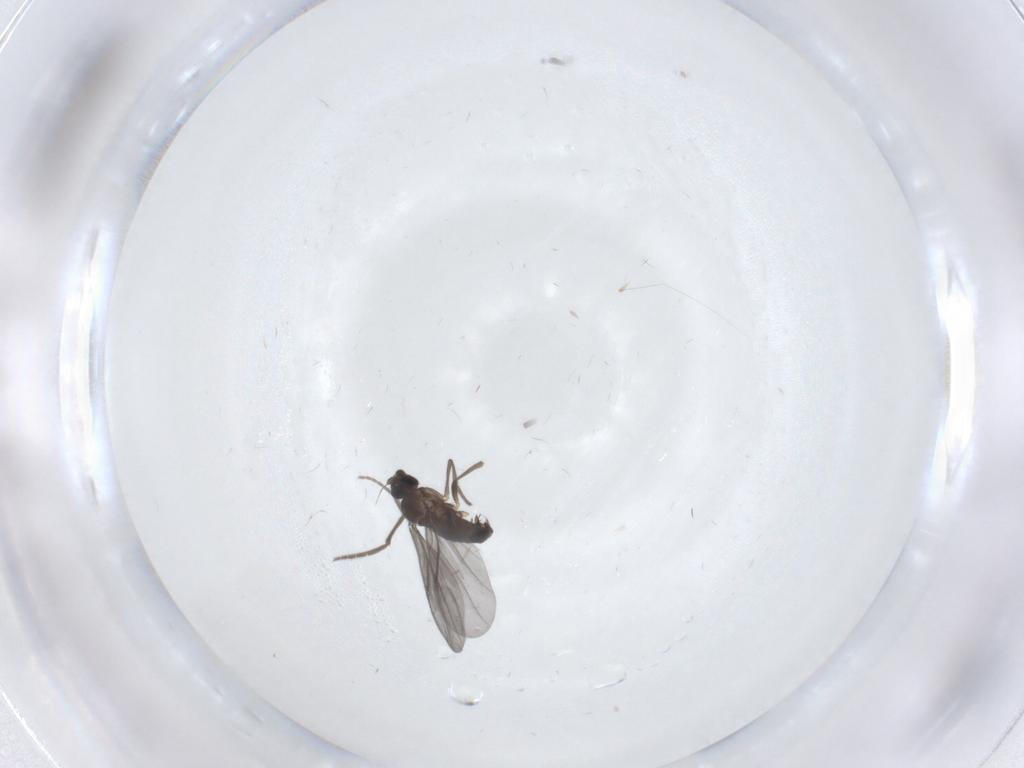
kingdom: Animalia
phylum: Arthropoda
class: Insecta
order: Diptera
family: Phoridae
